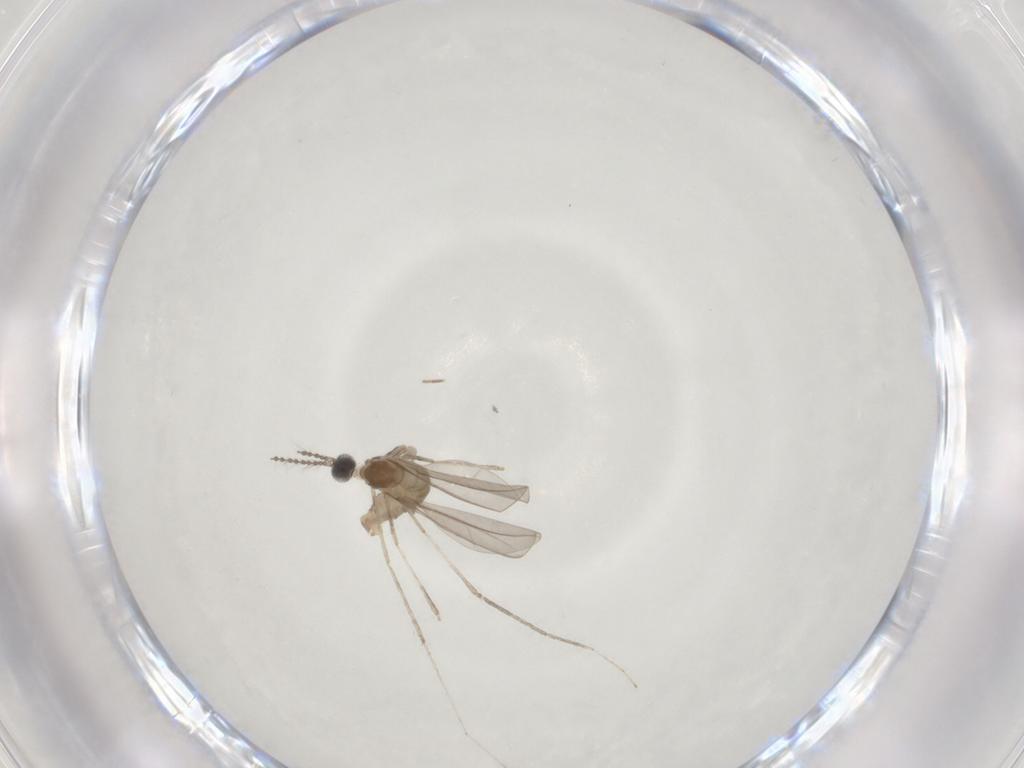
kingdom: Animalia
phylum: Arthropoda
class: Insecta
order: Diptera
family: Cecidomyiidae
